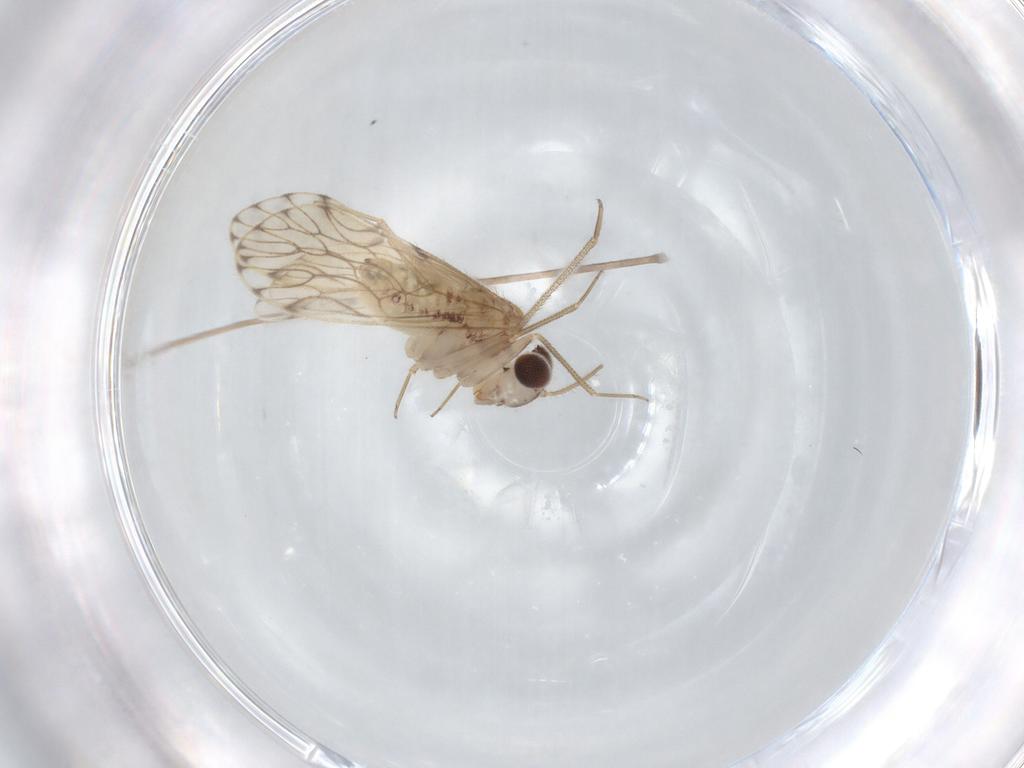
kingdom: Animalia
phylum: Arthropoda
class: Insecta
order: Psocodea
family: Epipsocidae
